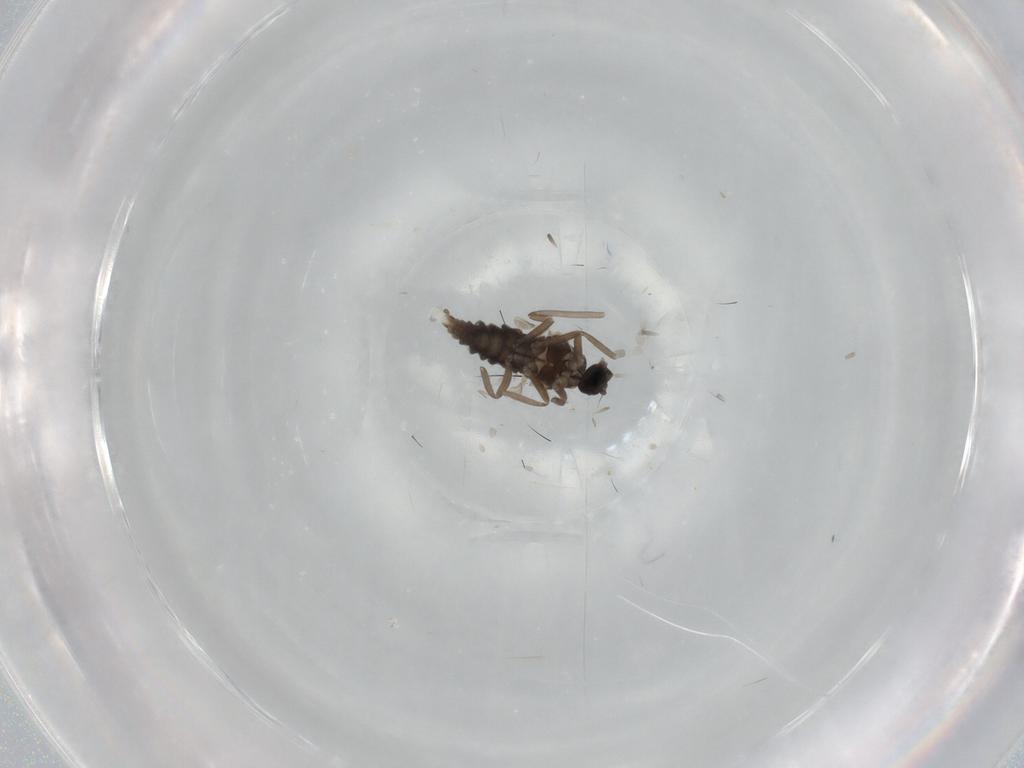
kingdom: Animalia
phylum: Arthropoda
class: Insecta
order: Diptera
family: Cecidomyiidae
